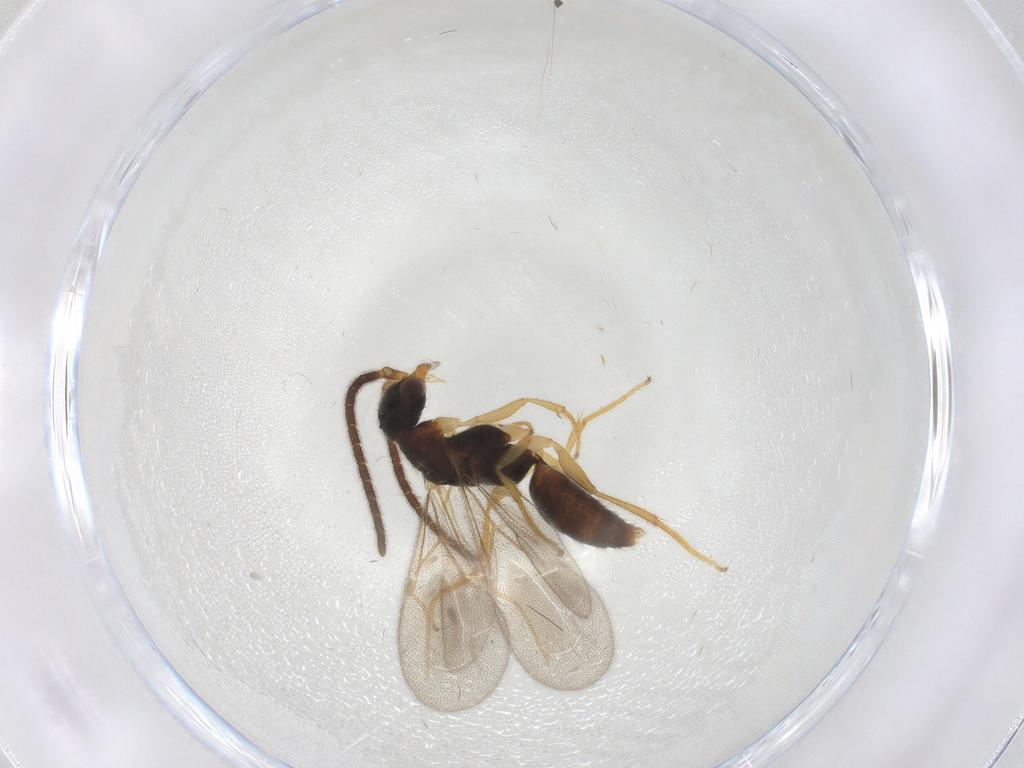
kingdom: Animalia
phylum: Arthropoda
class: Insecta
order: Hymenoptera
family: Bethylidae
